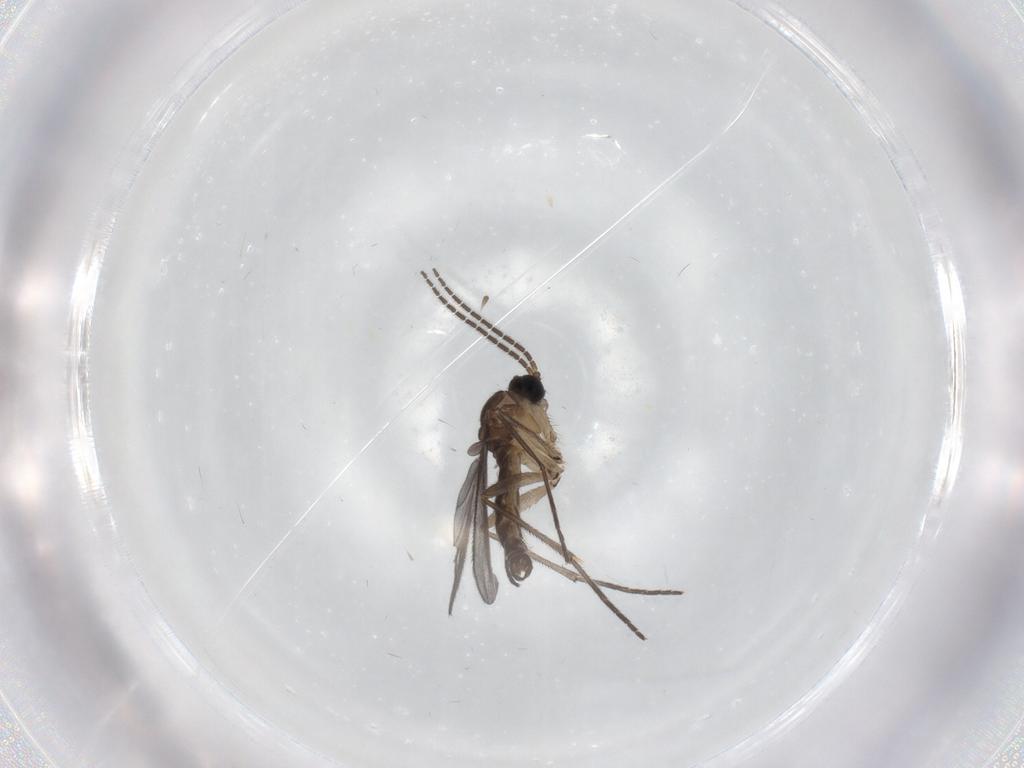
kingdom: Animalia
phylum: Arthropoda
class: Insecta
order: Diptera
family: Sciaridae
